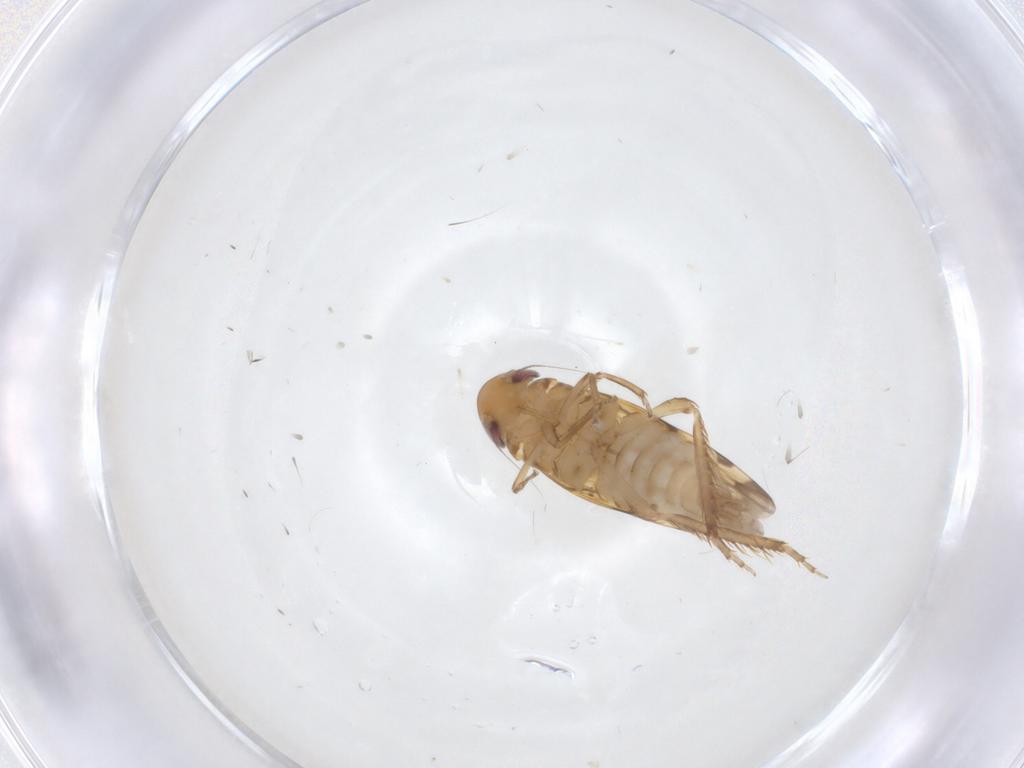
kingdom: Animalia
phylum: Arthropoda
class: Insecta
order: Hemiptera
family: Cicadellidae
